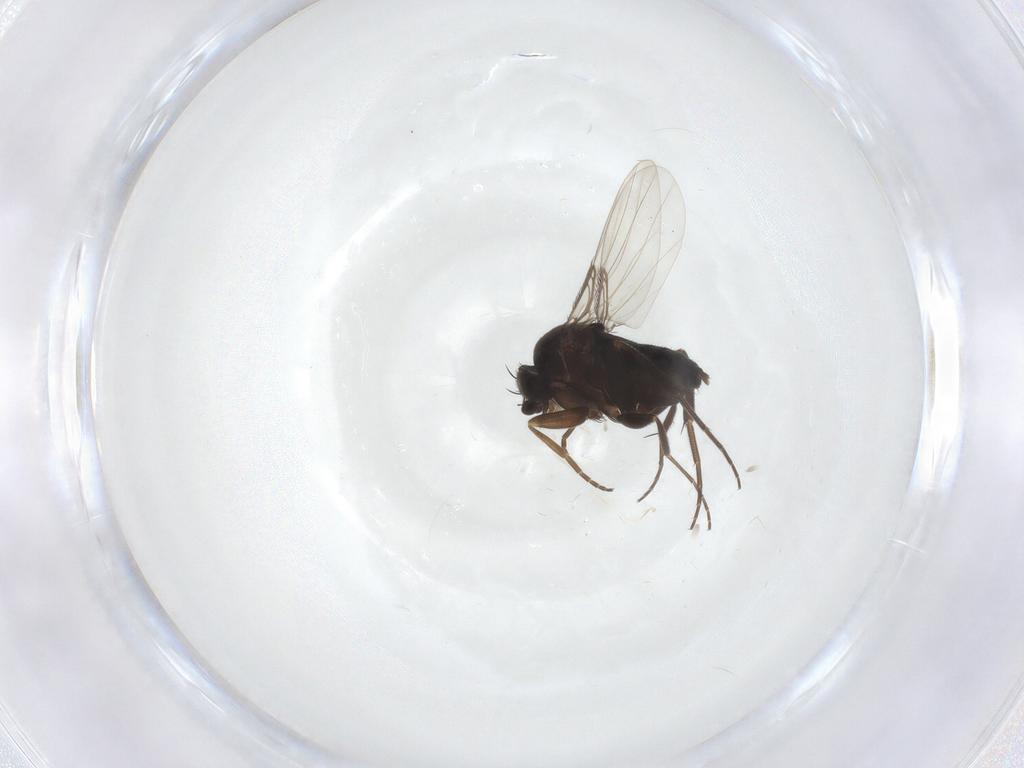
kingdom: Animalia
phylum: Arthropoda
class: Insecta
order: Diptera
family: Phoridae
